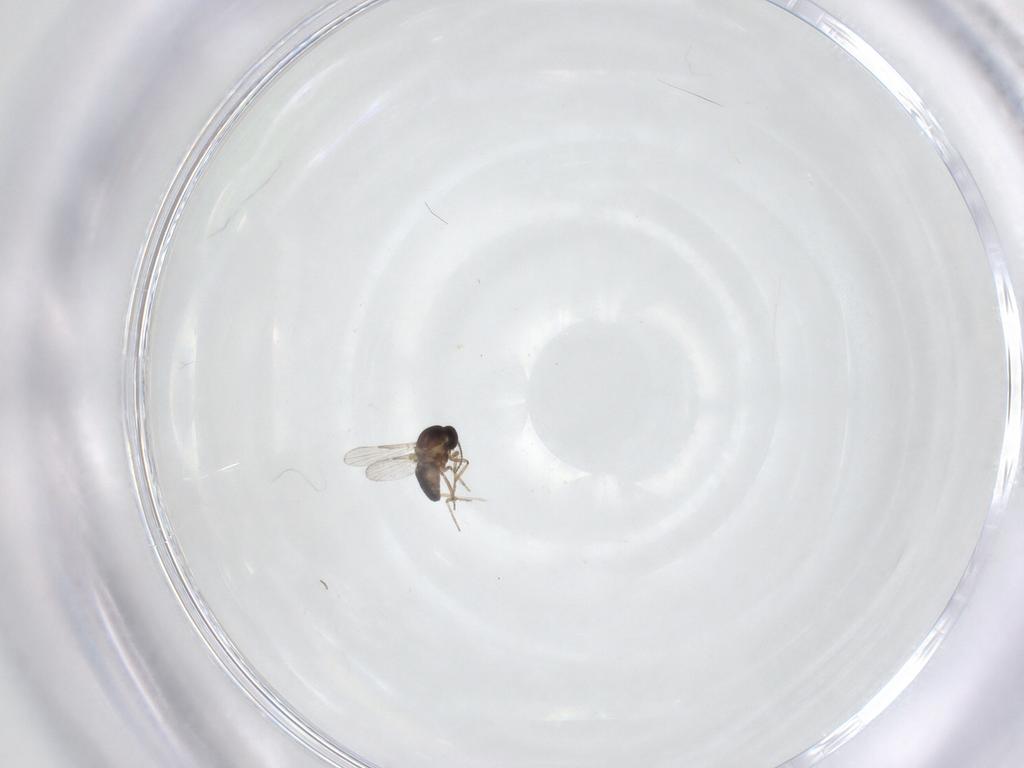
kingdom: Animalia
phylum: Arthropoda
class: Insecta
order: Diptera
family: Ceratopogonidae
